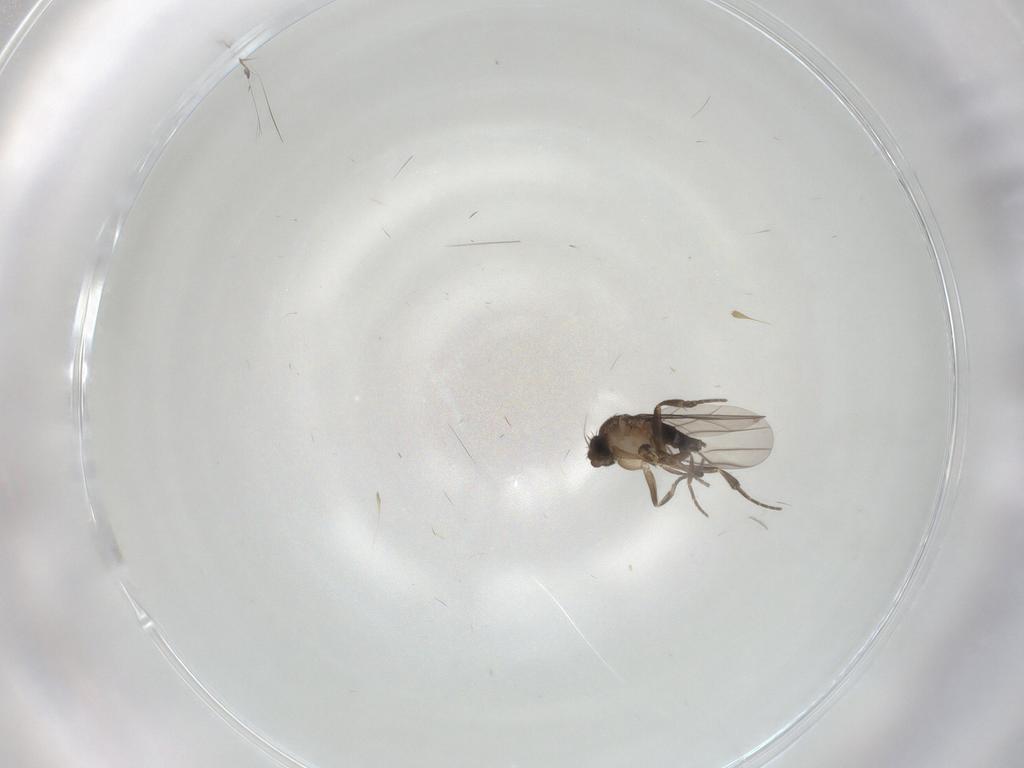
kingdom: Animalia
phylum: Arthropoda
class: Insecta
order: Diptera
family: Phoridae
